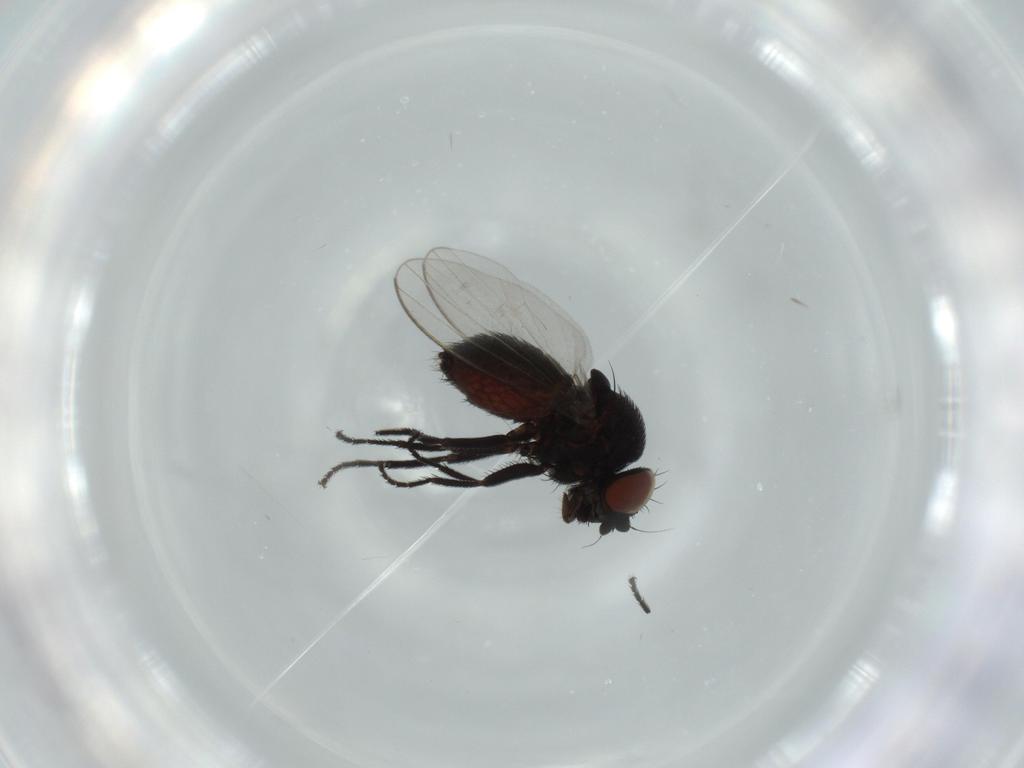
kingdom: Animalia
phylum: Arthropoda
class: Insecta
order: Diptera
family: Milichiidae
